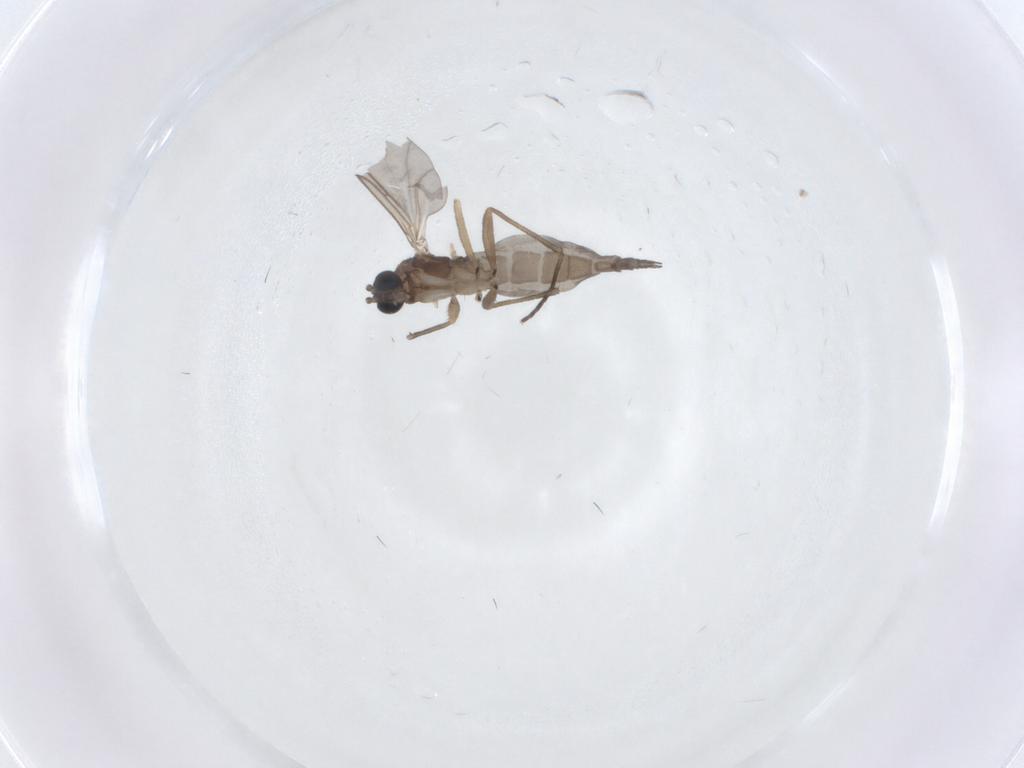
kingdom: Animalia
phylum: Arthropoda
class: Insecta
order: Diptera
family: Sciaridae
